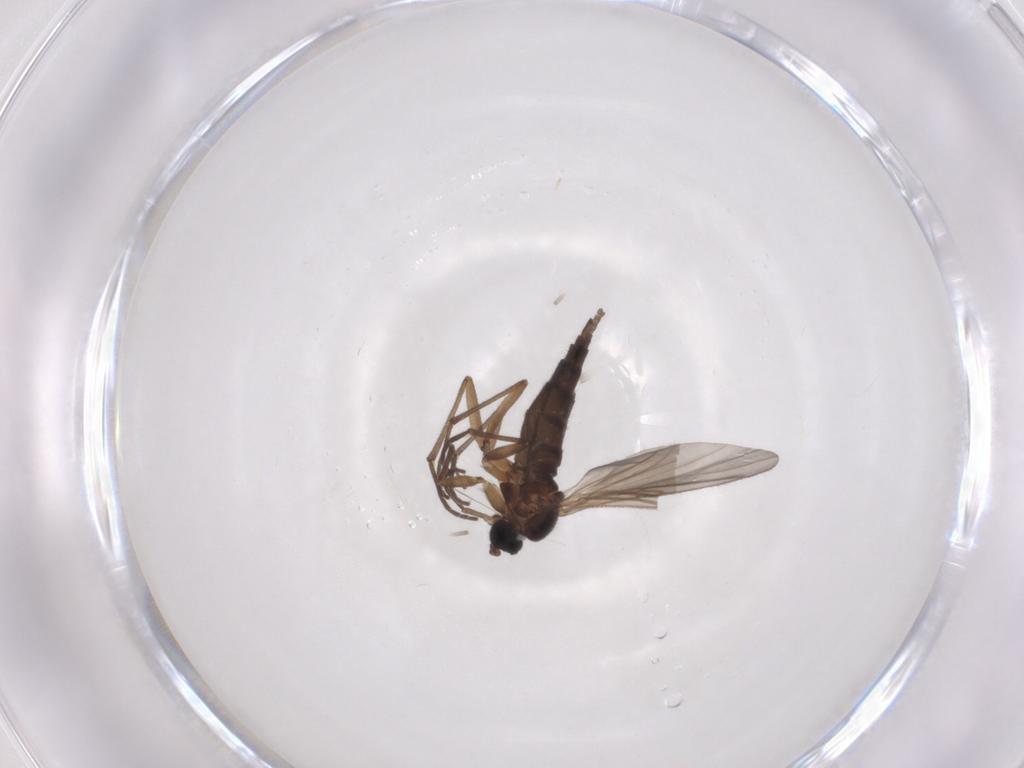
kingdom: Animalia
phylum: Arthropoda
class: Insecta
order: Diptera
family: Sciaridae
